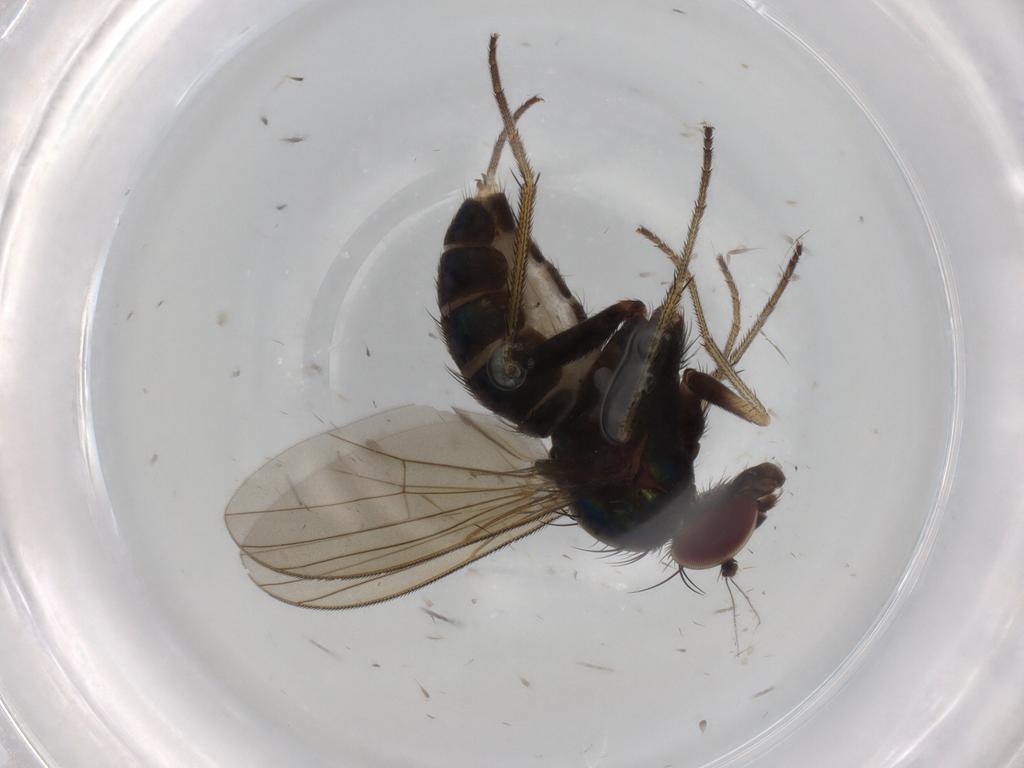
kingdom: Animalia
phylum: Arthropoda
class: Insecta
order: Diptera
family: Dolichopodidae
